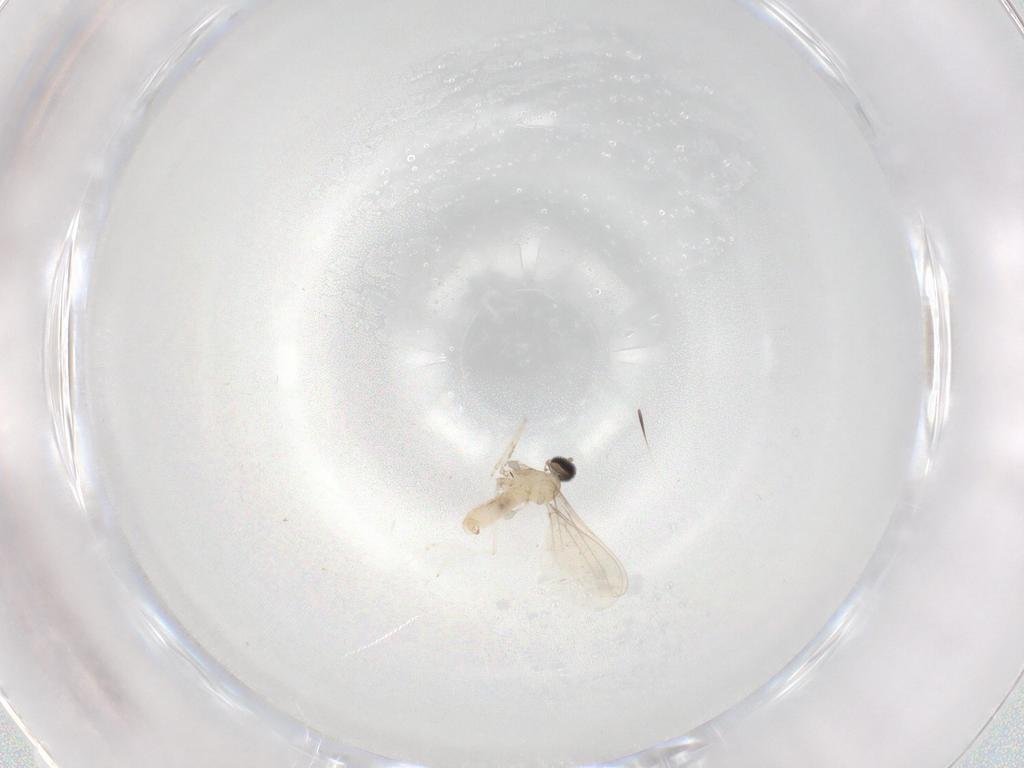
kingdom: Animalia
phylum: Arthropoda
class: Insecta
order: Diptera
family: Cecidomyiidae
